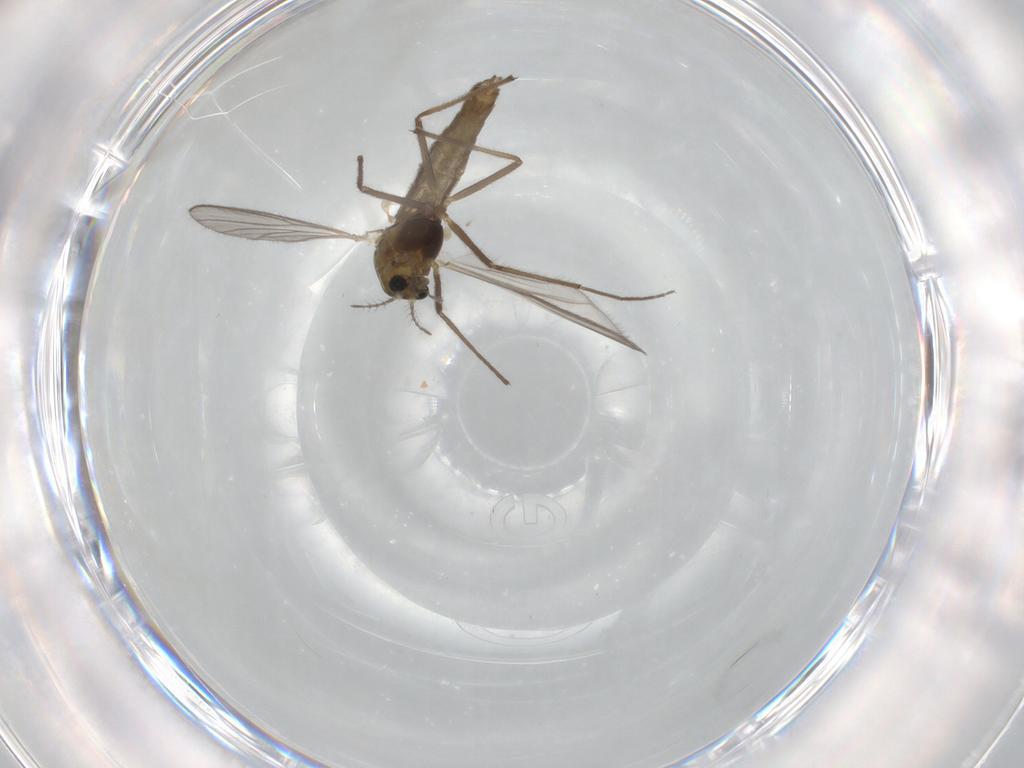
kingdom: Animalia
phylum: Arthropoda
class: Insecta
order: Diptera
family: Chironomidae
